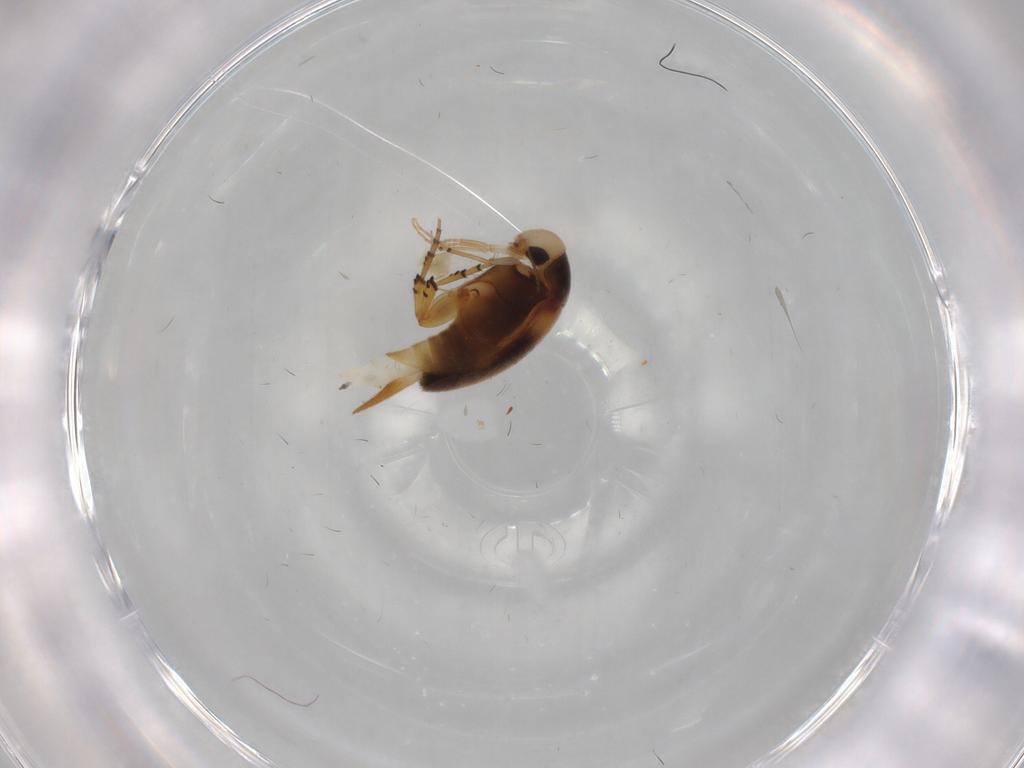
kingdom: Animalia
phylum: Arthropoda
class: Insecta
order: Coleoptera
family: Mordellidae
